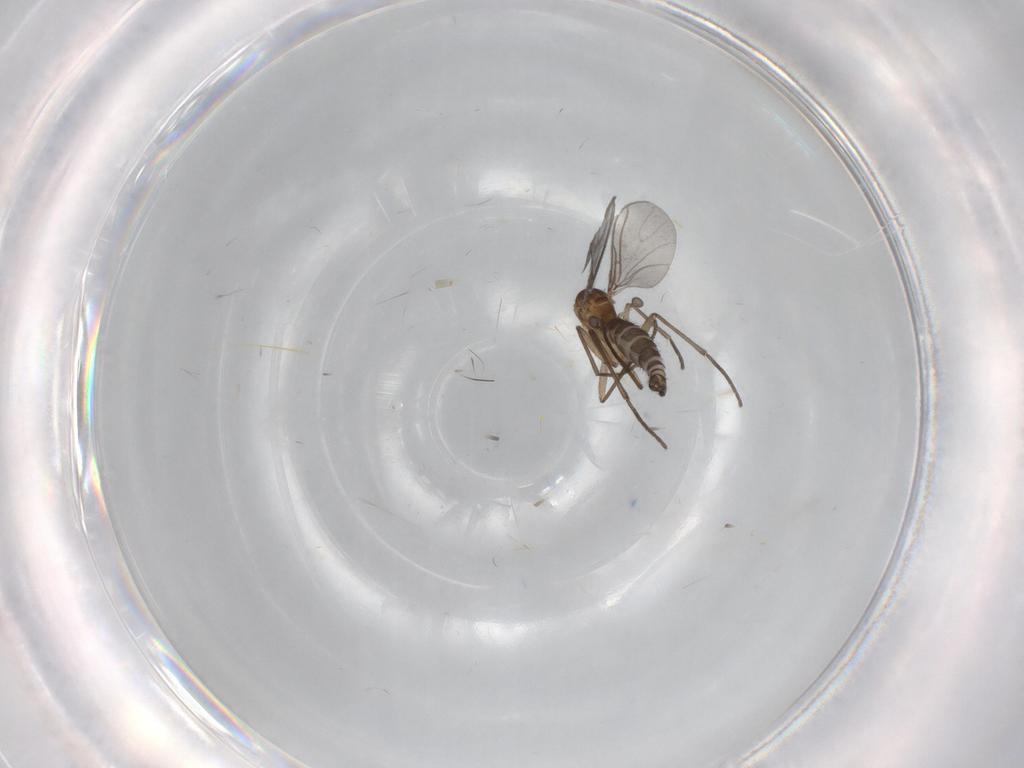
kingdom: Animalia
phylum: Arthropoda
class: Insecta
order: Diptera
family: Sciaridae
